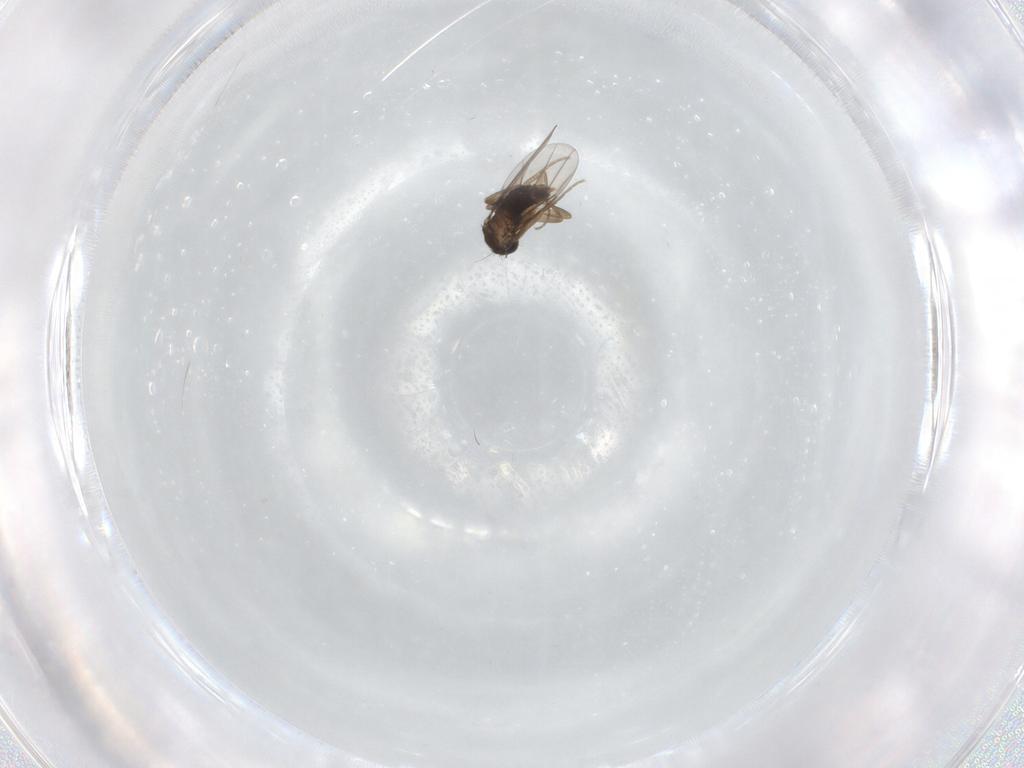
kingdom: Animalia
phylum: Arthropoda
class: Insecta
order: Diptera
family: Phoridae
